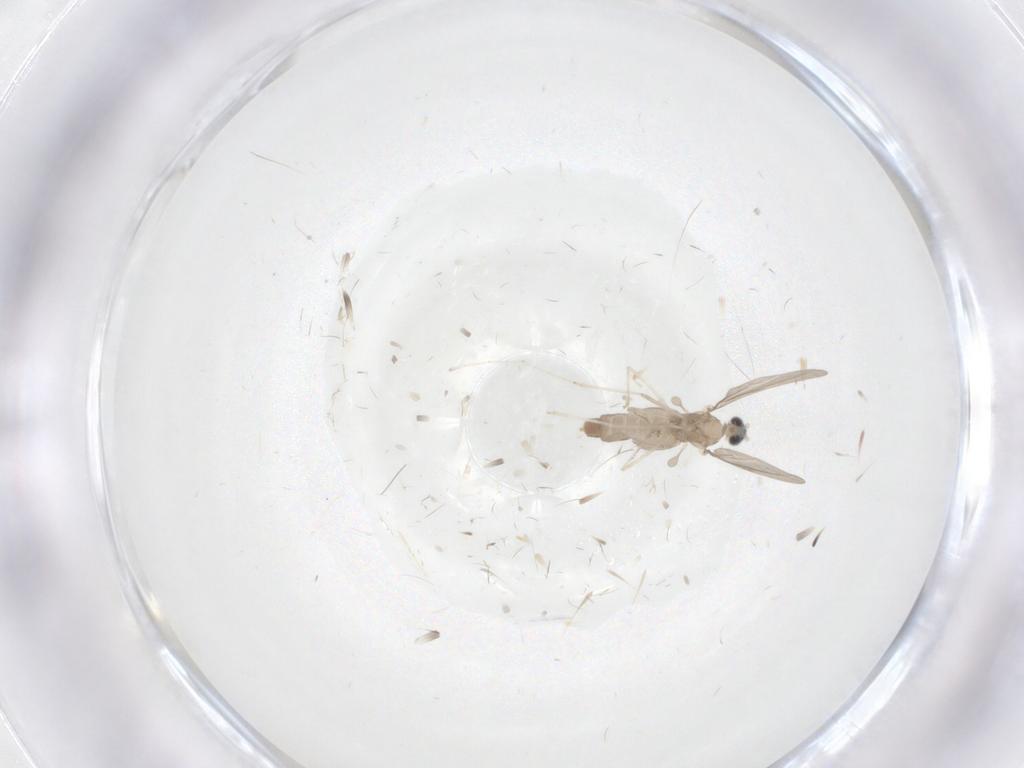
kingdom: Animalia
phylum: Arthropoda
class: Insecta
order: Diptera
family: Cecidomyiidae
